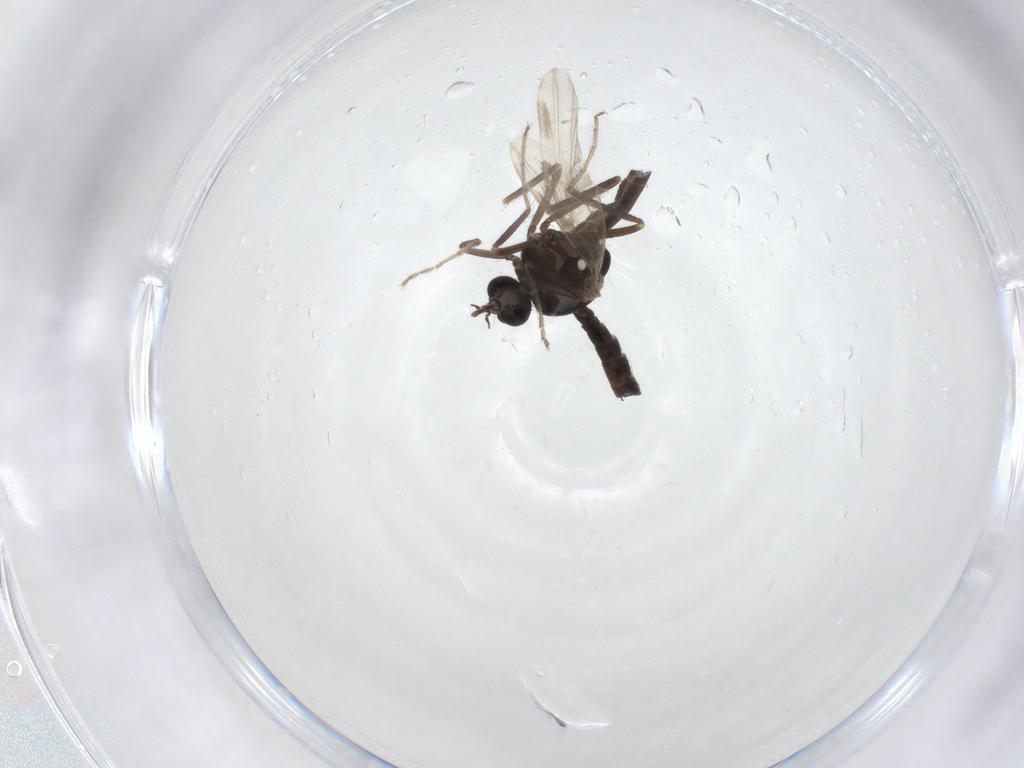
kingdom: Animalia
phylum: Arthropoda
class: Insecta
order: Diptera
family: Ceratopogonidae
